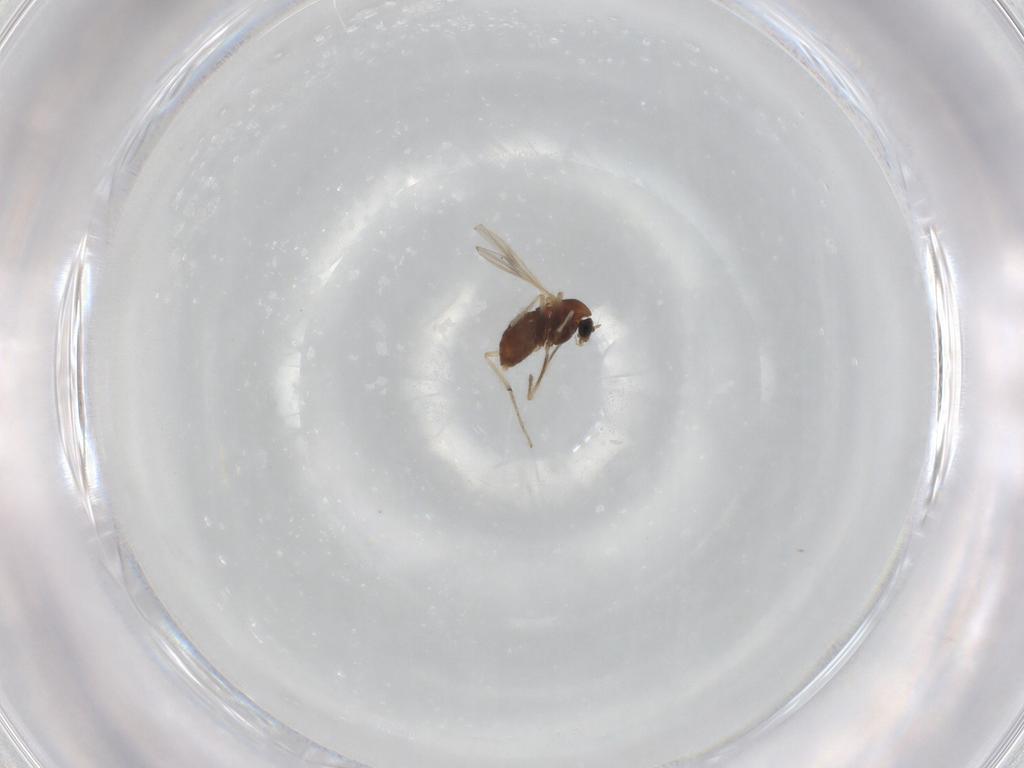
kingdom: Animalia
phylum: Arthropoda
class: Insecta
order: Diptera
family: Chironomidae
